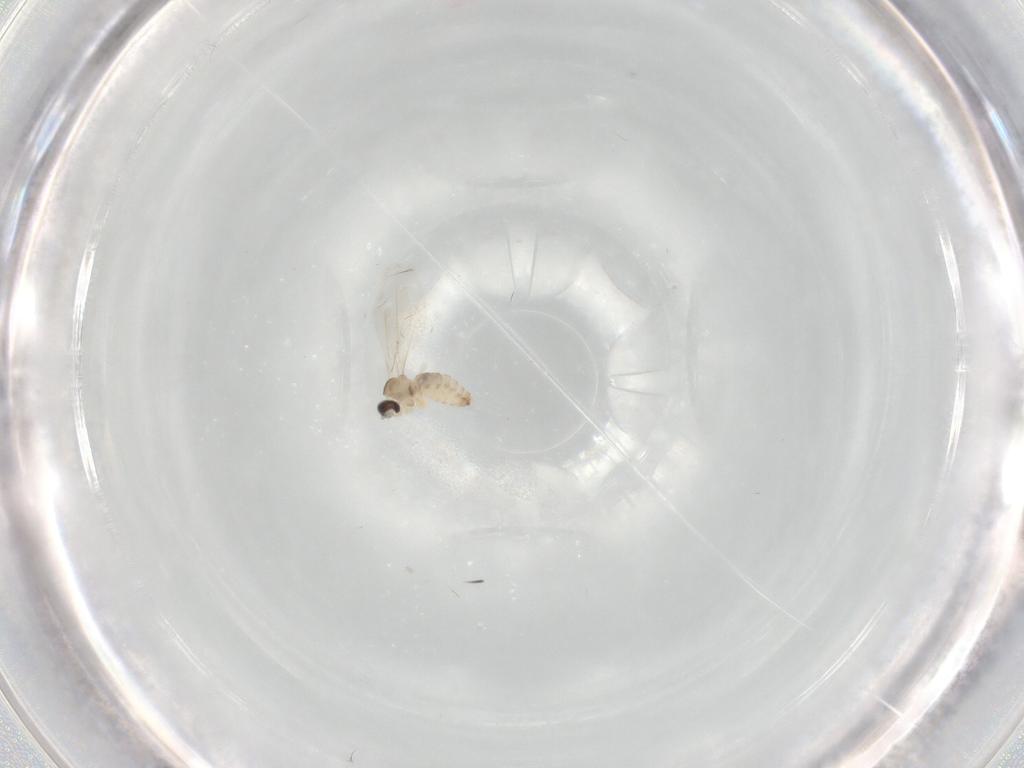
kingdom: Animalia
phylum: Arthropoda
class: Insecta
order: Diptera
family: Cecidomyiidae
